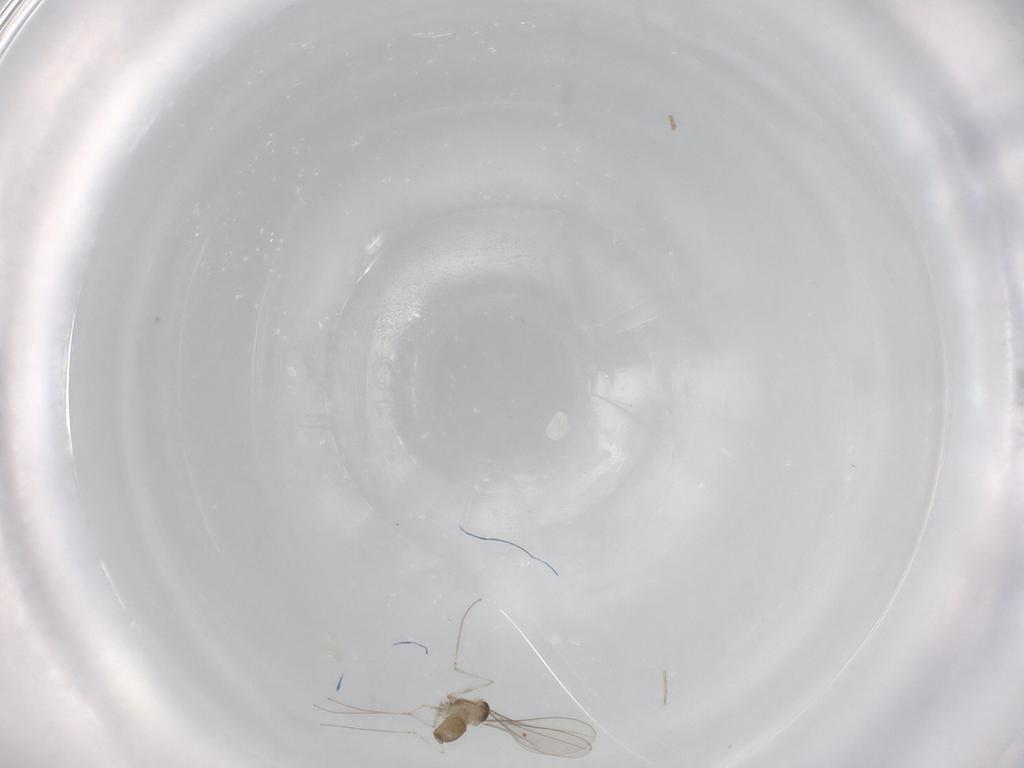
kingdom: Animalia
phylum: Arthropoda
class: Insecta
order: Diptera
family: Cecidomyiidae
